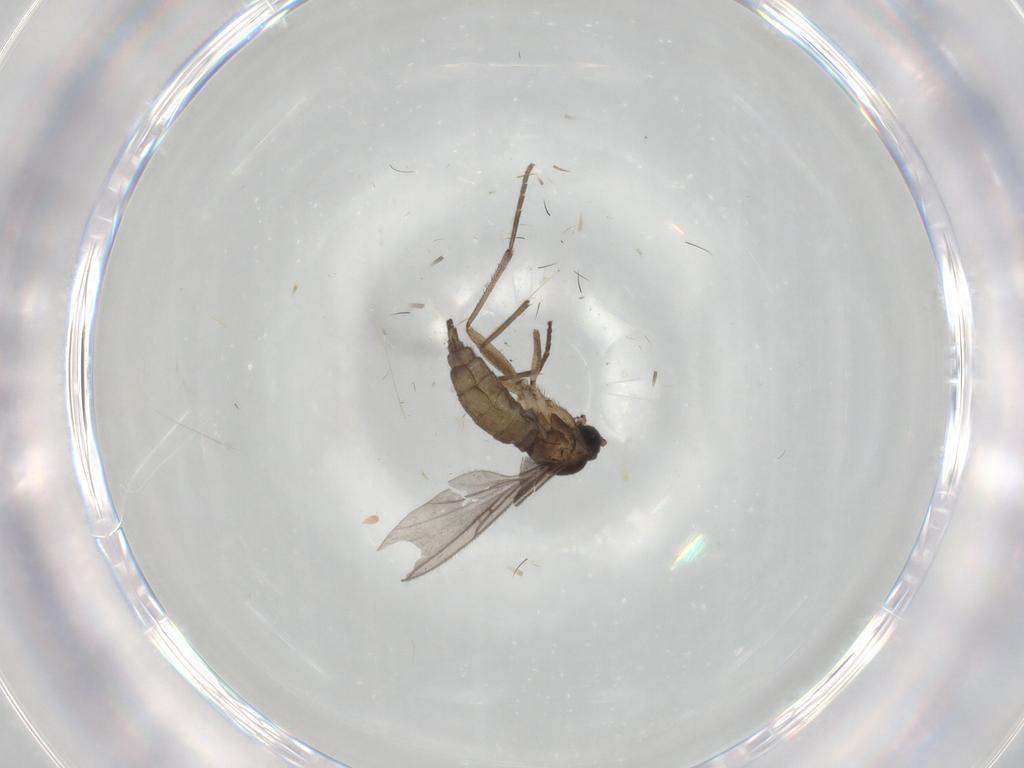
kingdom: Animalia
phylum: Arthropoda
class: Insecta
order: Diptera
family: Sciaridae
